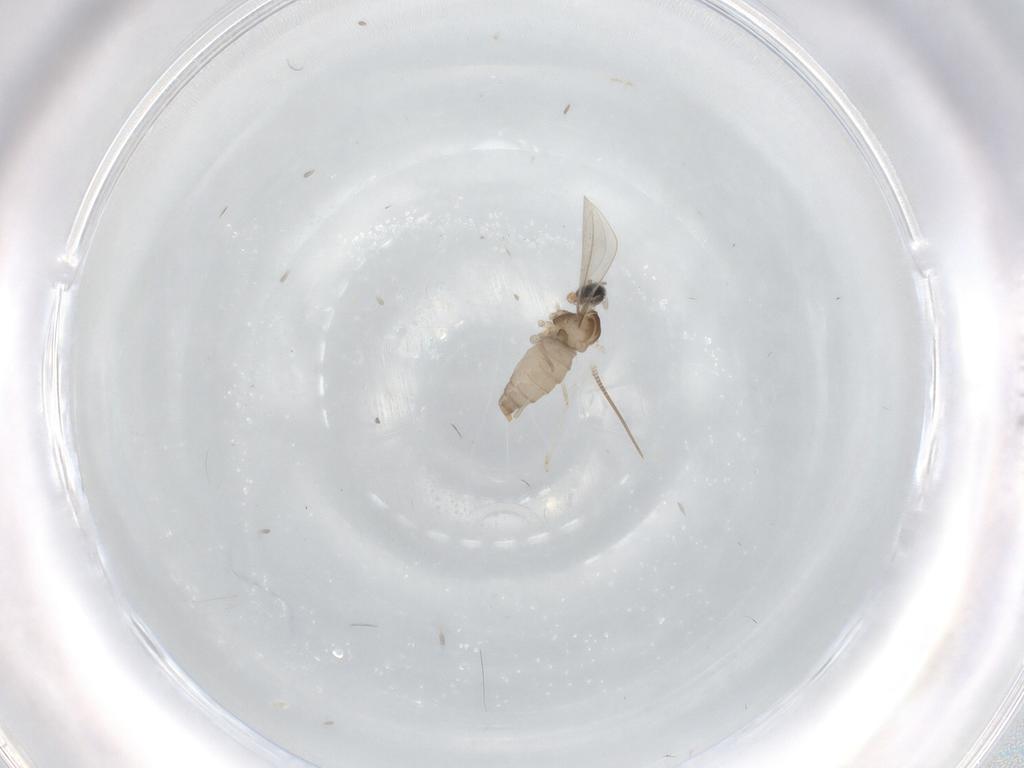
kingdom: Animalia
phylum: Arthropoda
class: Insecta
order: Diptera
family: Cecidomyiidae
